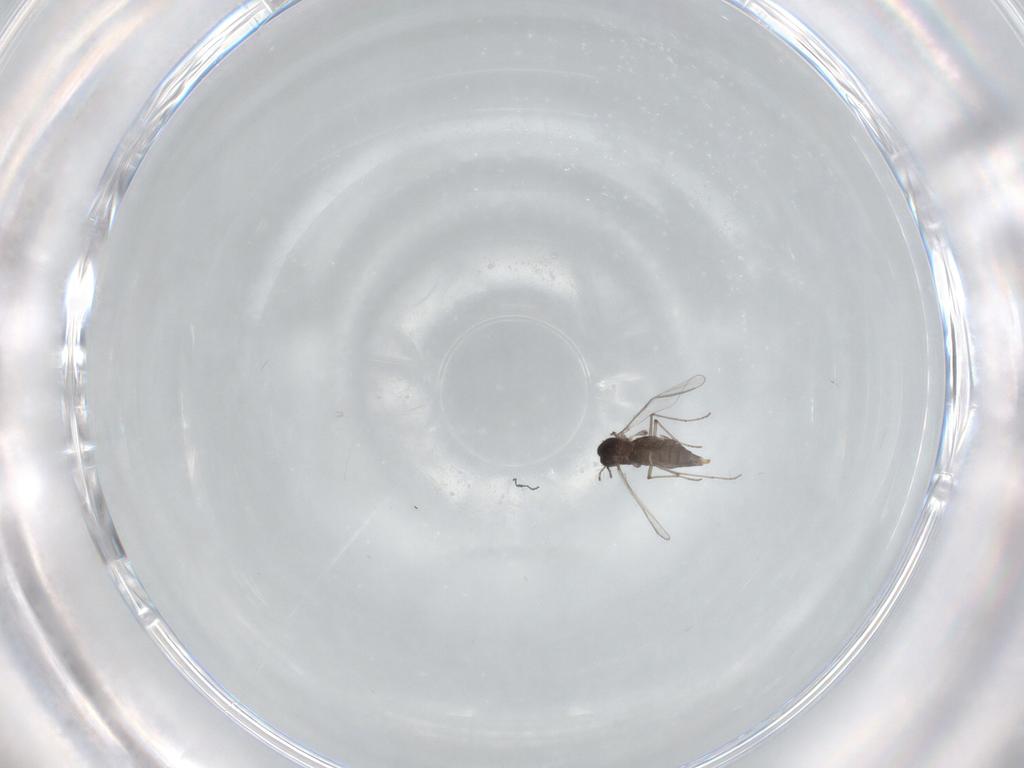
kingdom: Animalia
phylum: Arthropoda
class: Insecta
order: Diptera
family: Chironomidae
